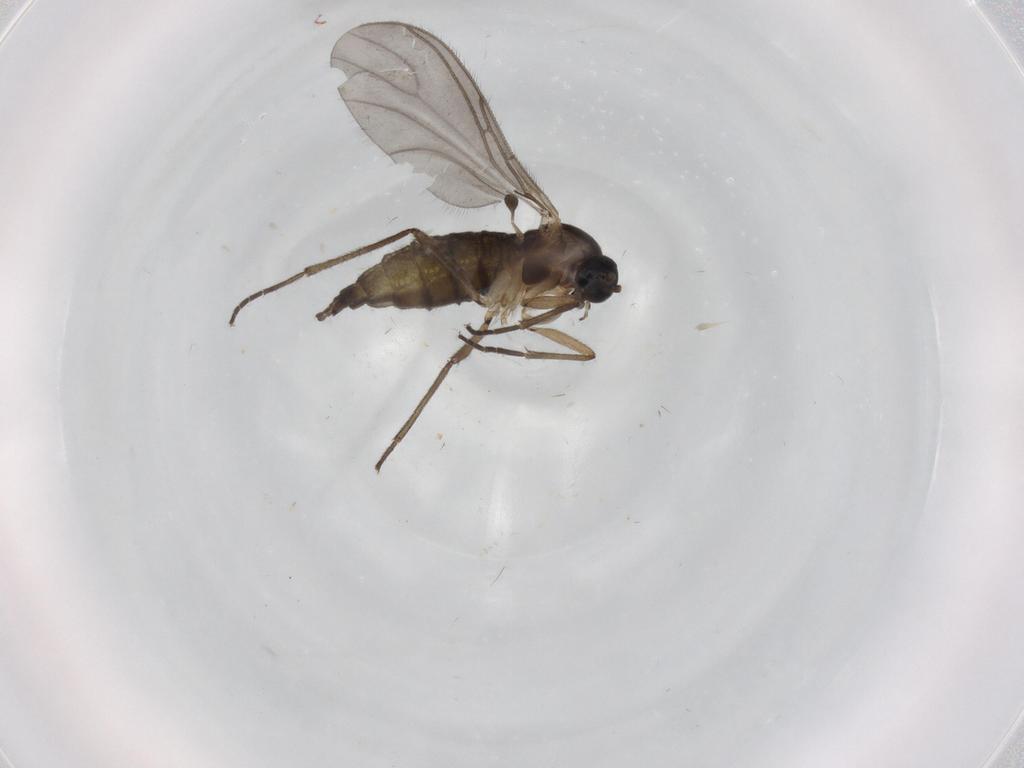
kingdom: Animalia
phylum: Arthropoda
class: Insecta
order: Diptera
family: Sciaridae
